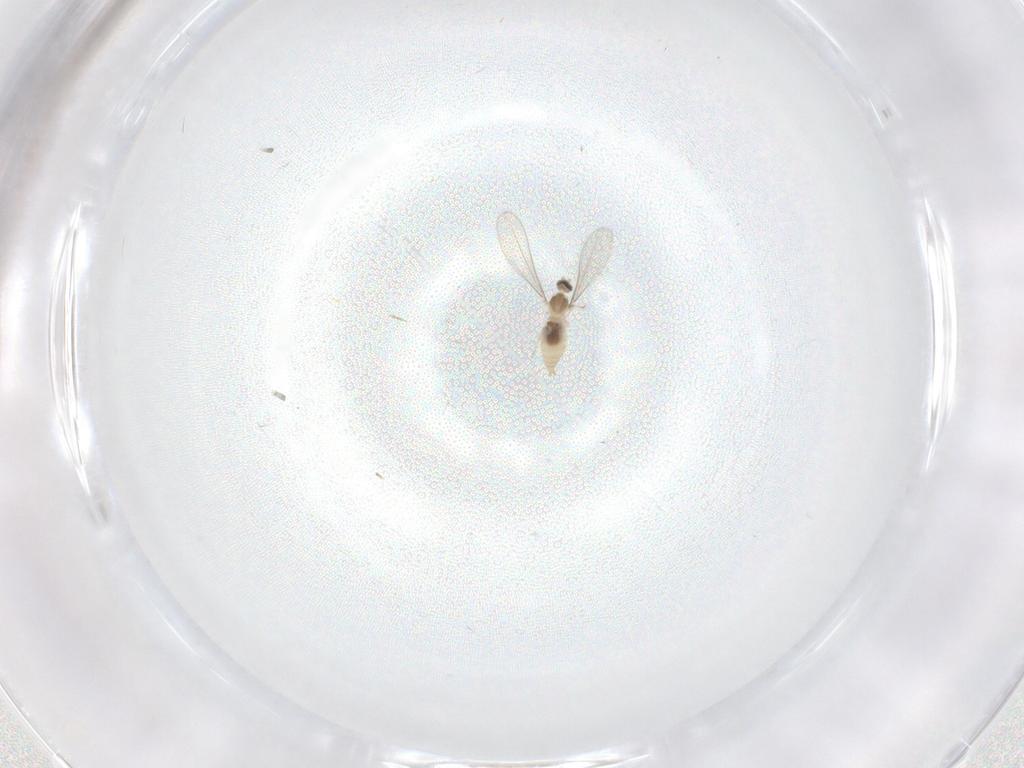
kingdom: Animalia
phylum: Arthropoda
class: Insecta
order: Diptera
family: Cecidomyiidae
